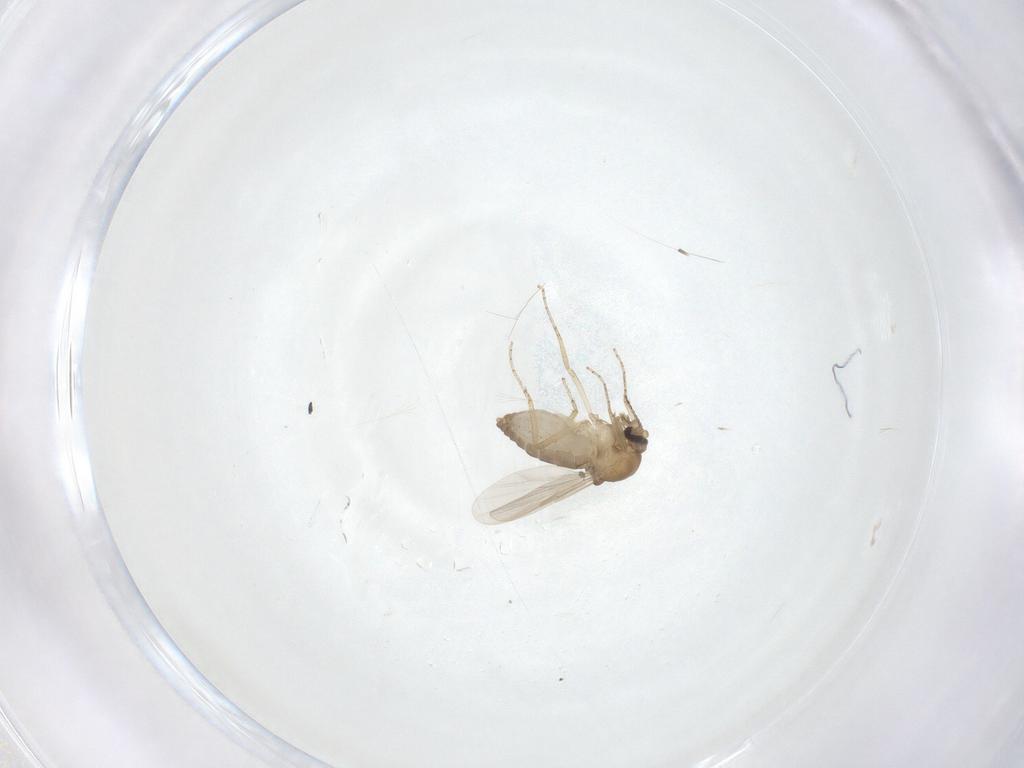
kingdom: Animalia
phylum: Arthropoda
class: Insecta
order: Diptera
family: Ceratopogonidae
